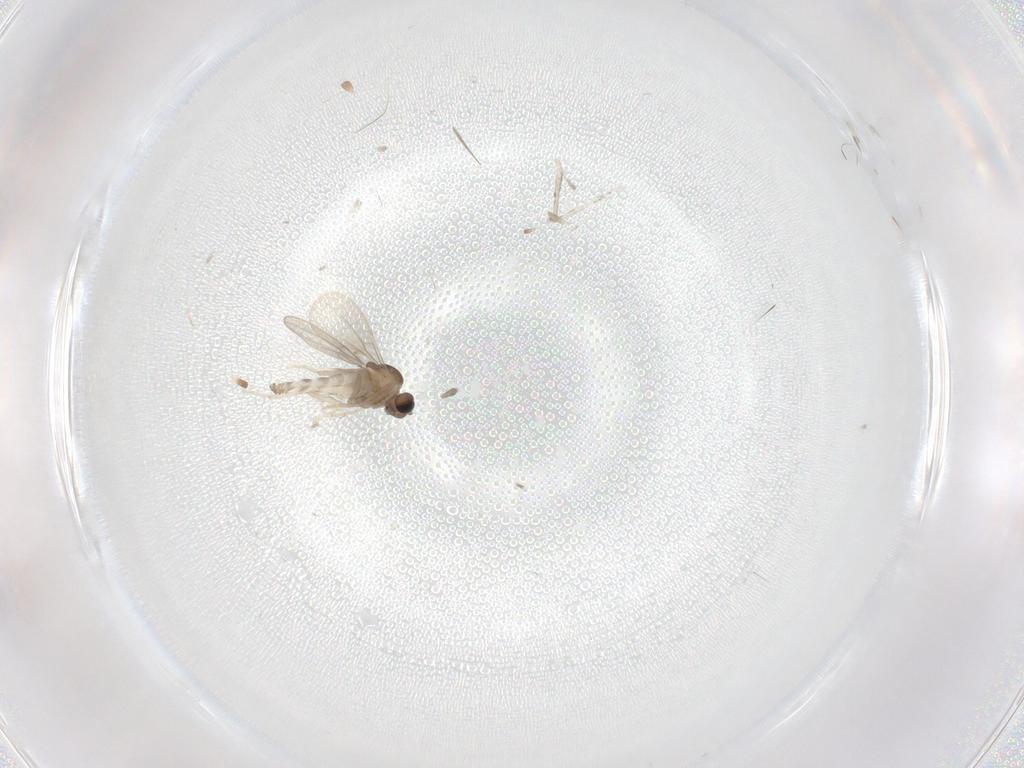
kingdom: Animalia
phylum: Arthropoda
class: Insecta
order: Diptera
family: Cecidomyiidae
